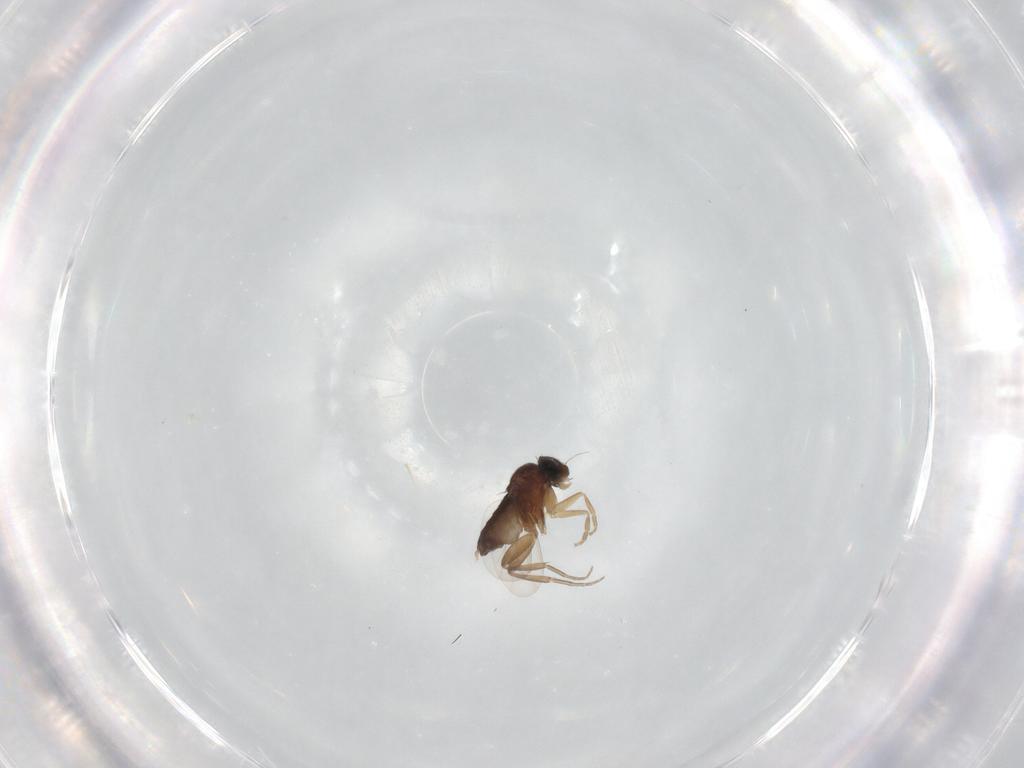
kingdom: Animalia
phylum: Arthropoda
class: Insecta
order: Diptera
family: Phoridae
